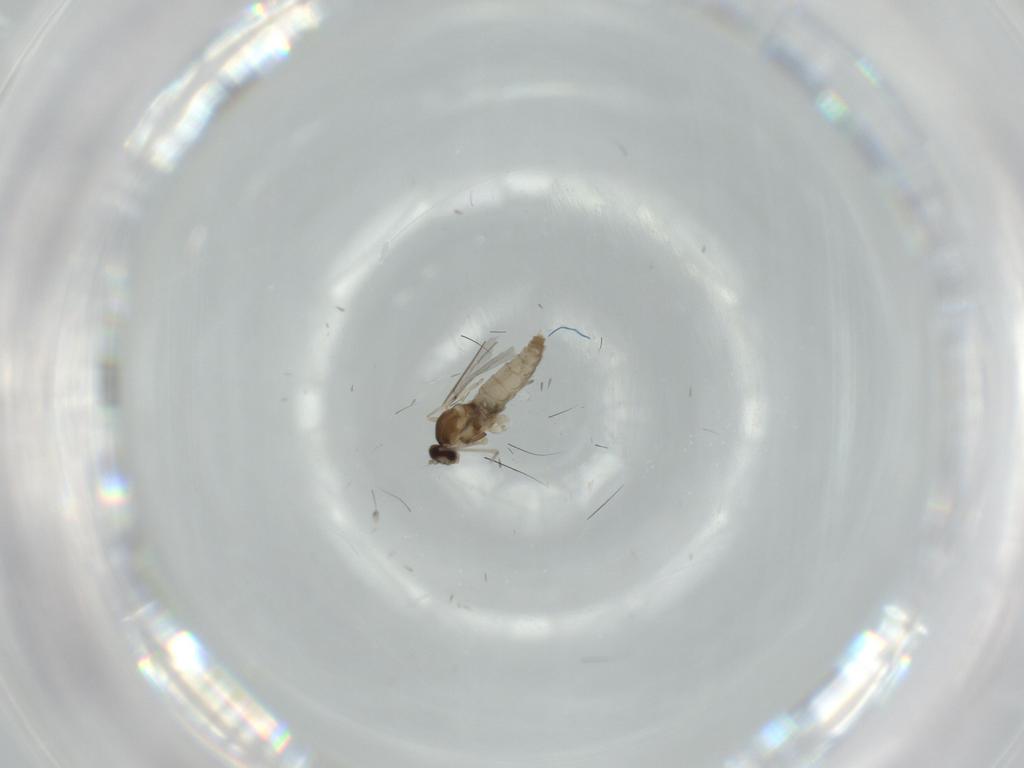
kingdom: Animalia
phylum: Arthropoda
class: Insecta
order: Diptera
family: Cecidomyiidae
